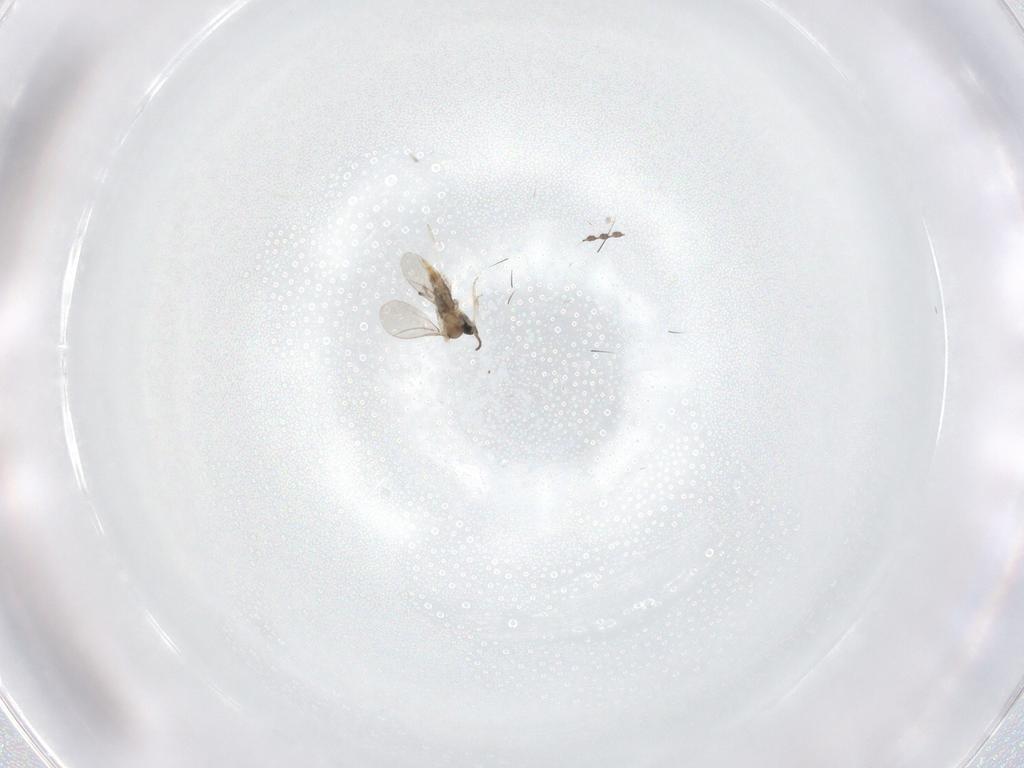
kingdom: Animalia
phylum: Arthropoda
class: Insecta
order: Diptera
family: Cecidomyiidae
